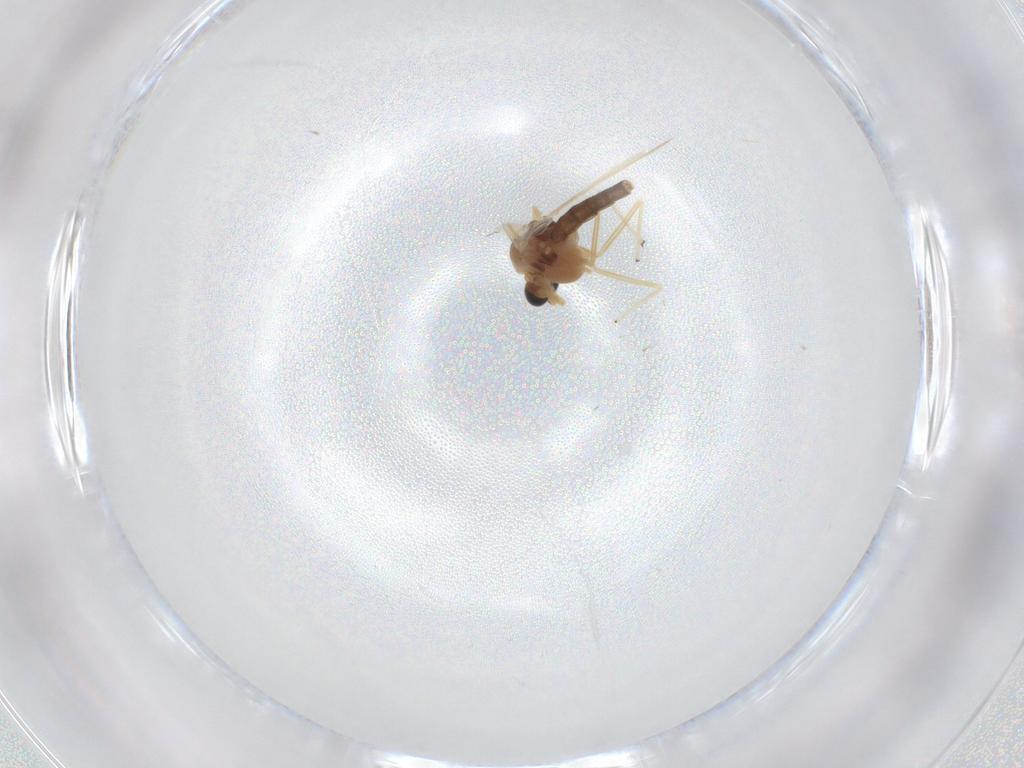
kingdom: Animalia
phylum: Arthropoda
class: Insecta
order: Diptera
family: Chironomidae
